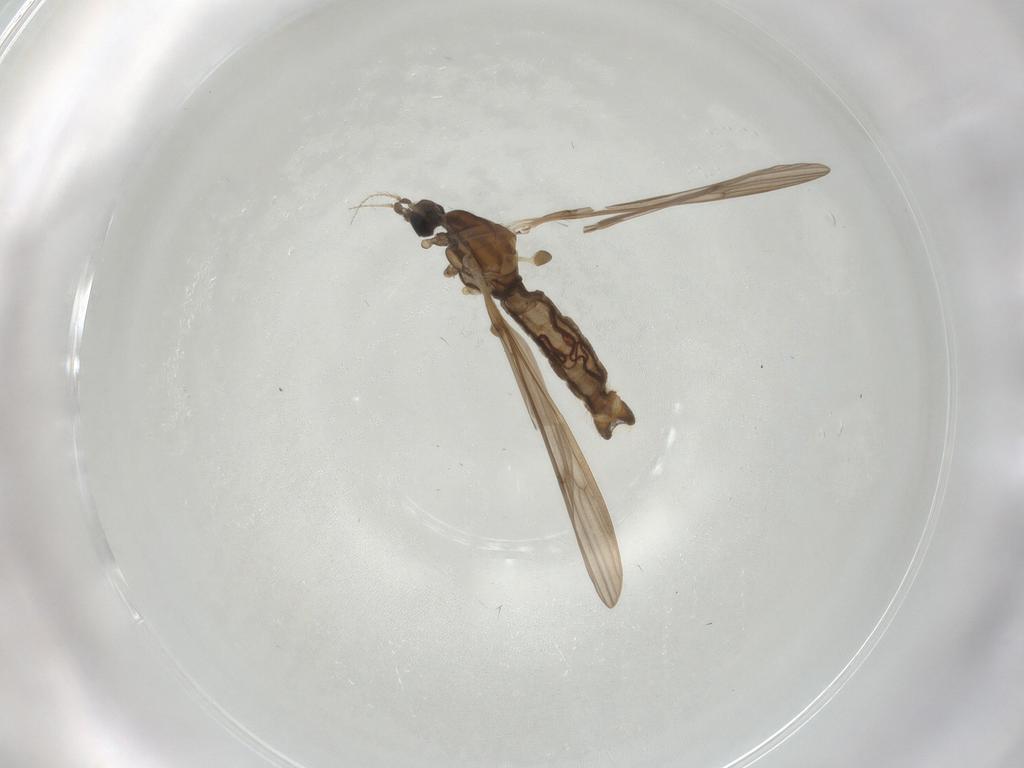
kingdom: Animalia
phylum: Arthropoda
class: Insecta
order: Diptera
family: Limoniidae
